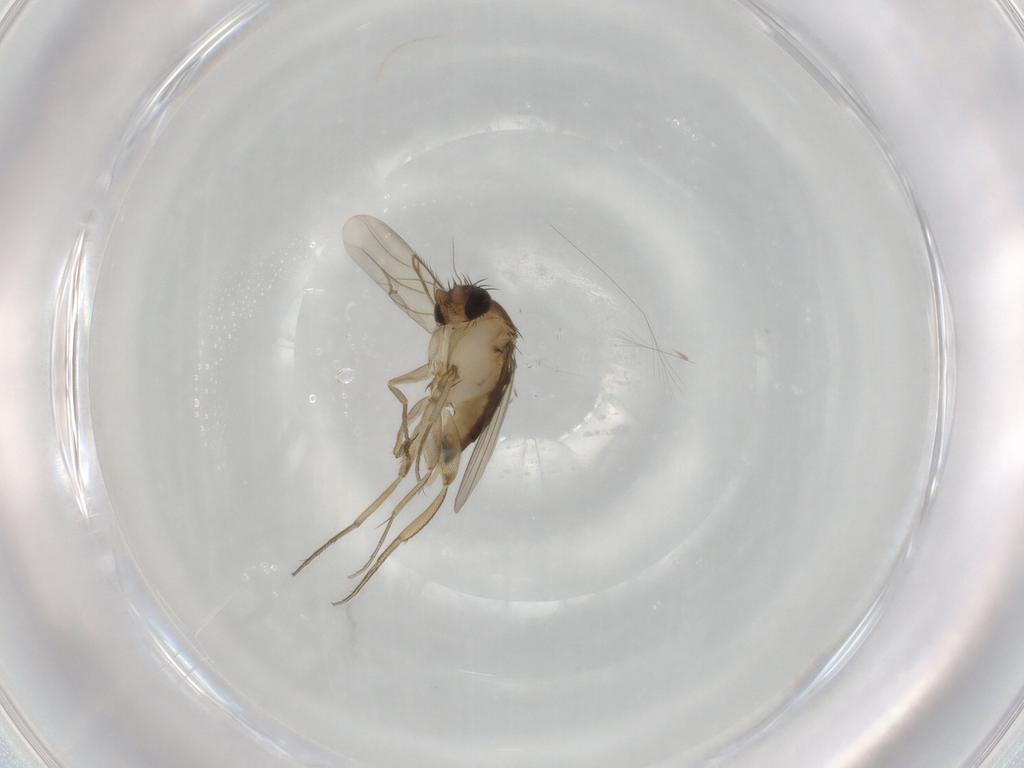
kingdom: Animalia
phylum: Arthropoda
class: Insecta
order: Diptera
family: Phoridae
